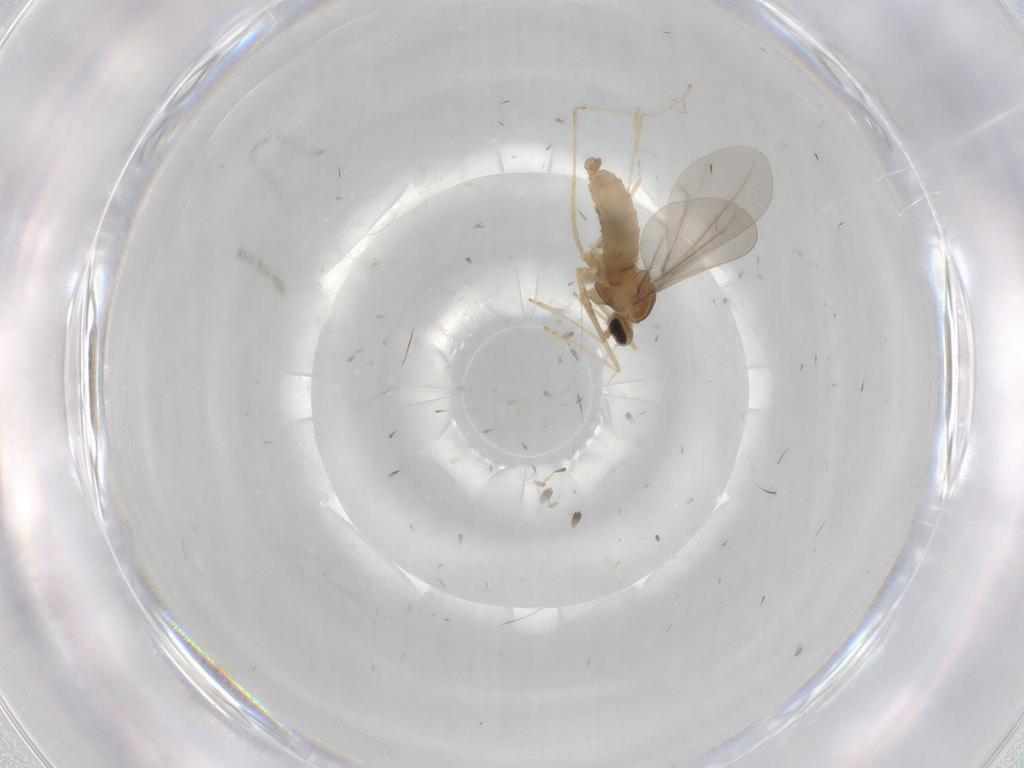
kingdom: Animalia
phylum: Arthropoda
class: Insecta
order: Diptera
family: Cecidomyiidae
